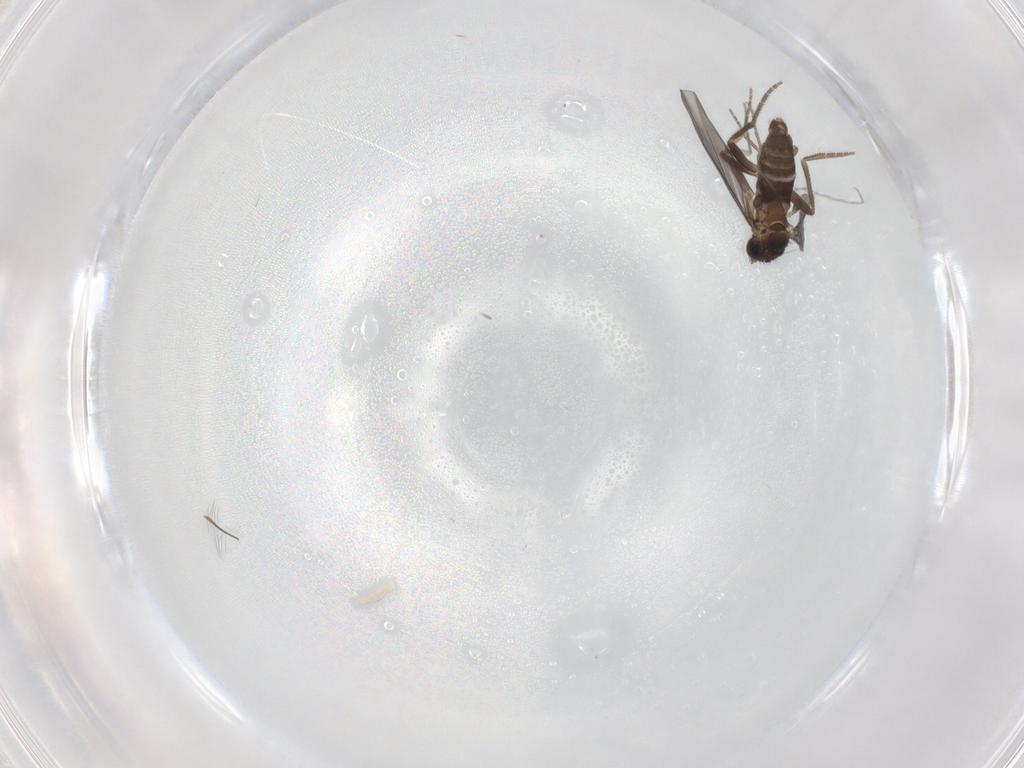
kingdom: Animalia
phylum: Arthropoda
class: Insecta
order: Diptera
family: Phoridae
